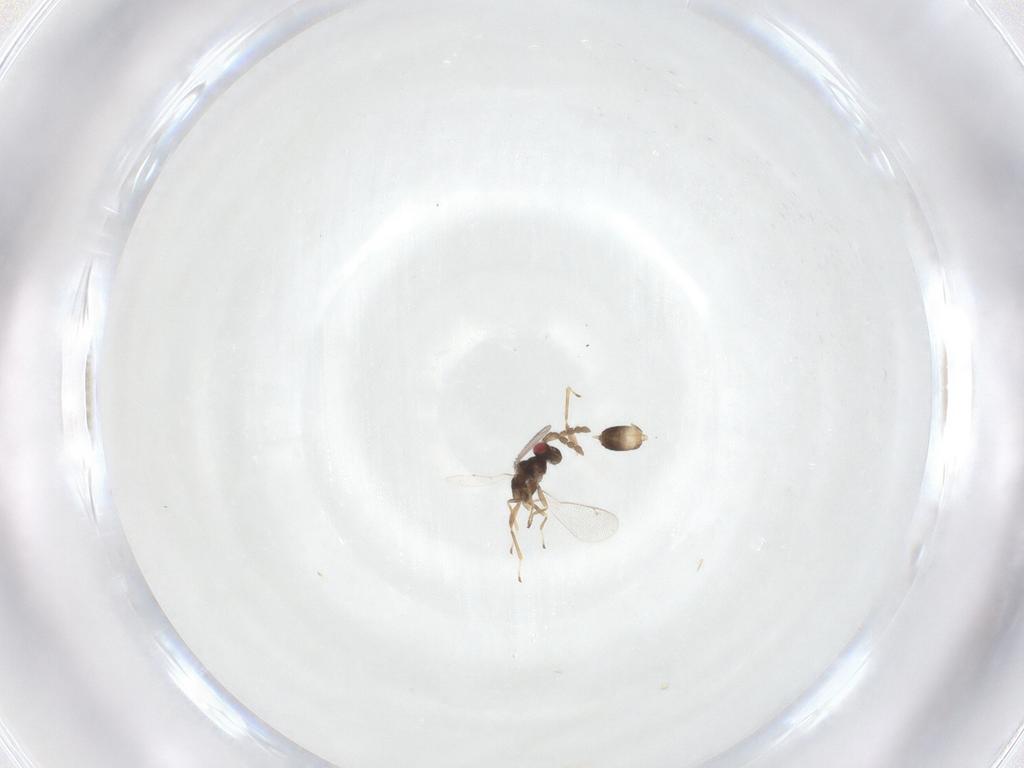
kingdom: Animalia
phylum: Arthropoda
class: Insecta
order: Hymenoptera
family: Eulophidae
